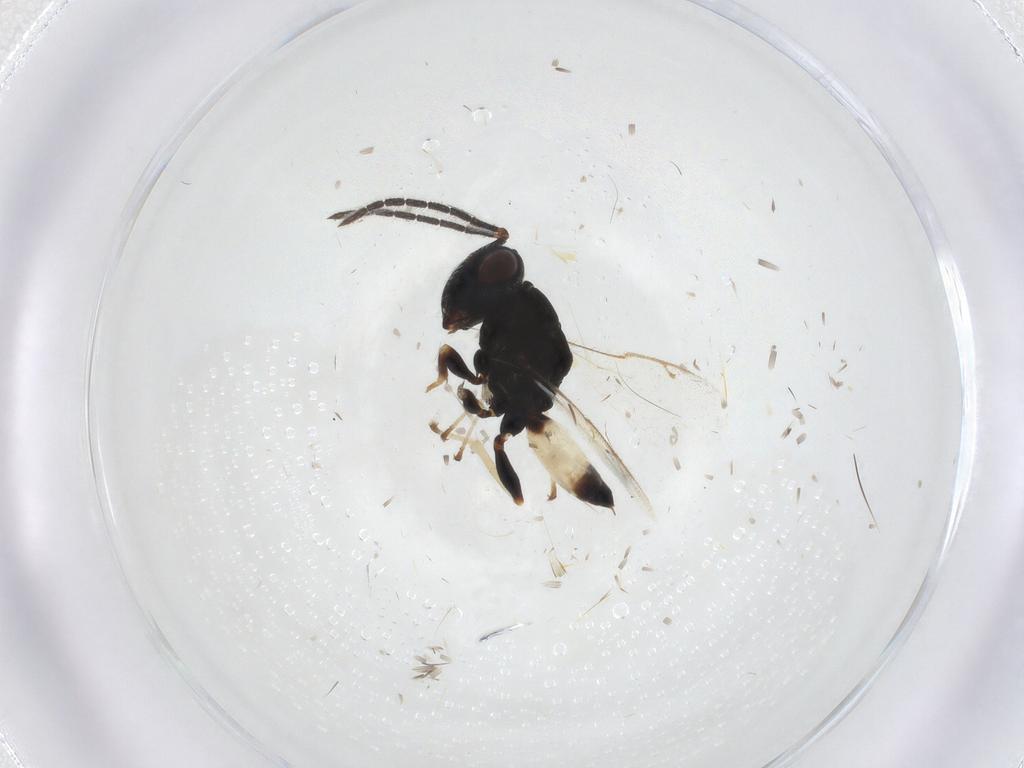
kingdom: Animalia
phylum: Arthropoda
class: Insecta
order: Hymenoptera
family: Pteromalidae
